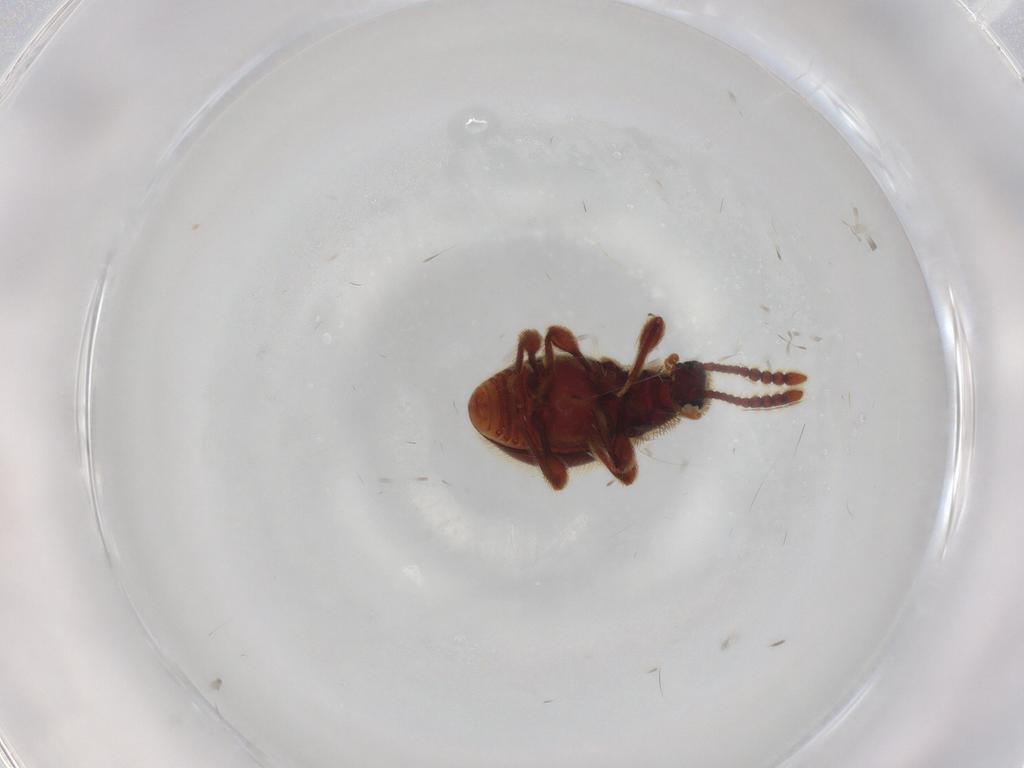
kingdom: Animalia
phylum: Arthropoda
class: Insecta
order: Coleoptera
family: Staphylinidae
